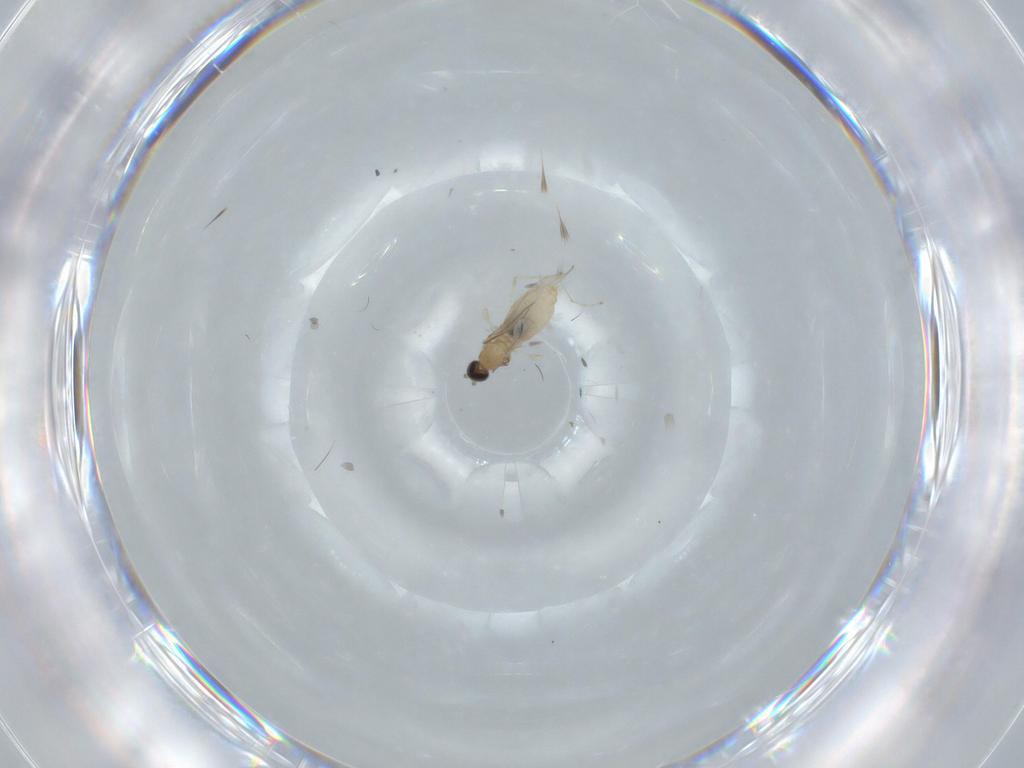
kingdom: Animalia
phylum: Arthropoda
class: Insecta
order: Diptera
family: Cecidomyiidae
